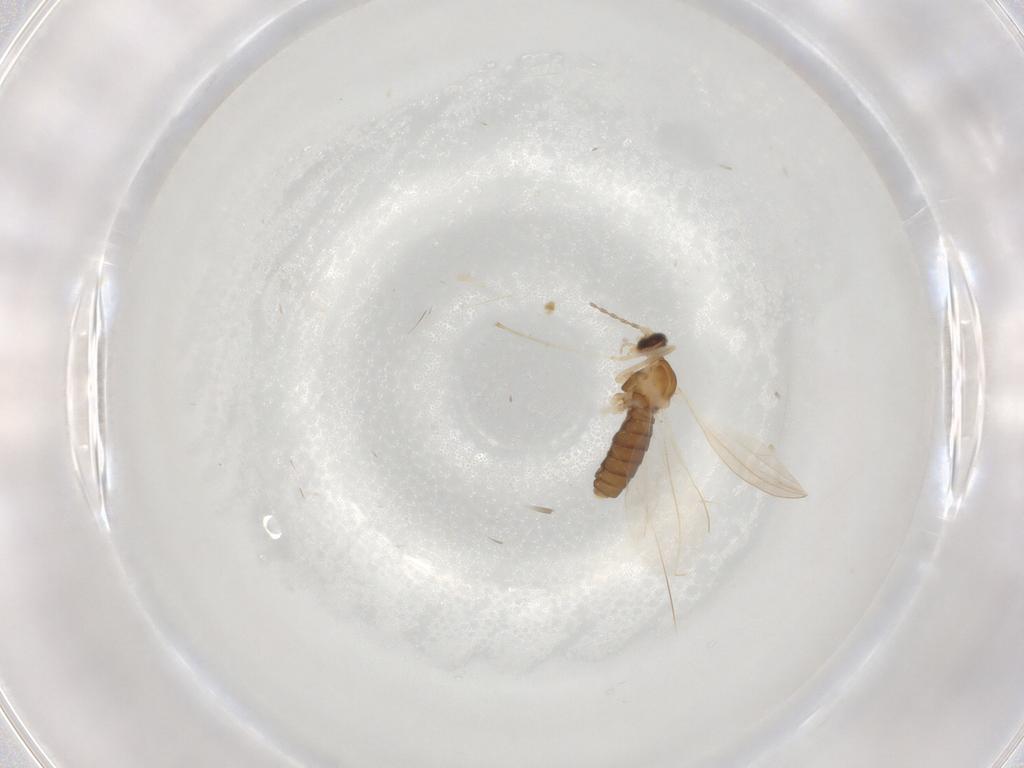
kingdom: Animalia
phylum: Arthropoda
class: Insecta
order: Diptera
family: Cecidomyiidae
